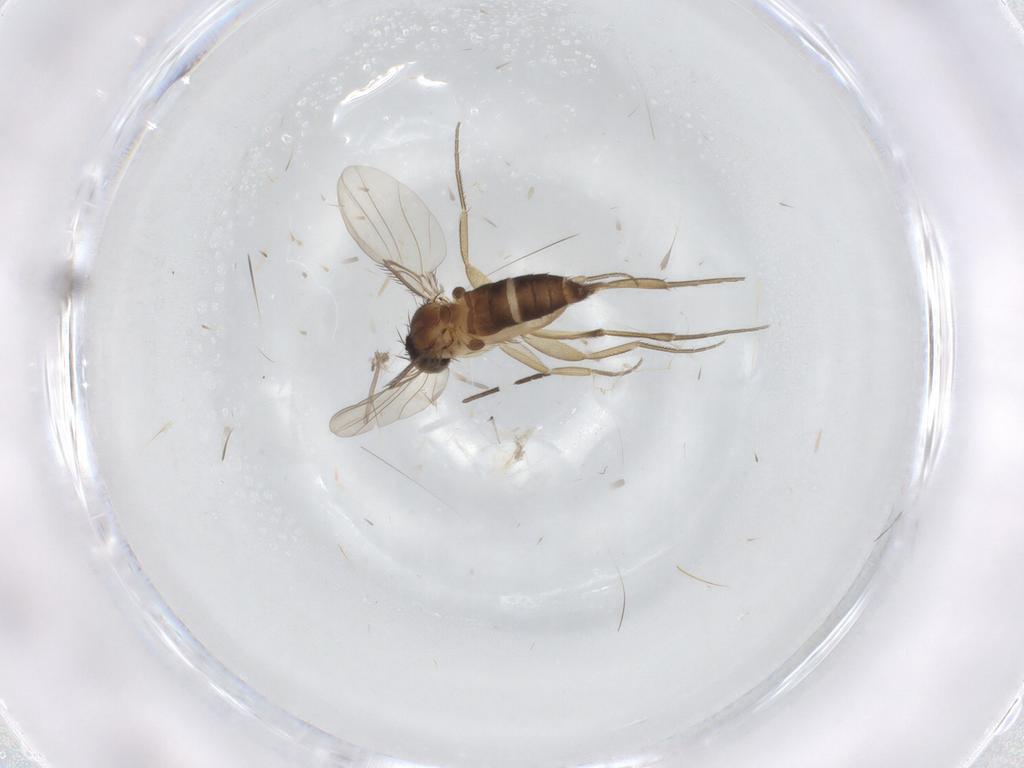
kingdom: Animalia
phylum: Arthropoda
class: Insecta
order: Diptera
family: Phoridae
